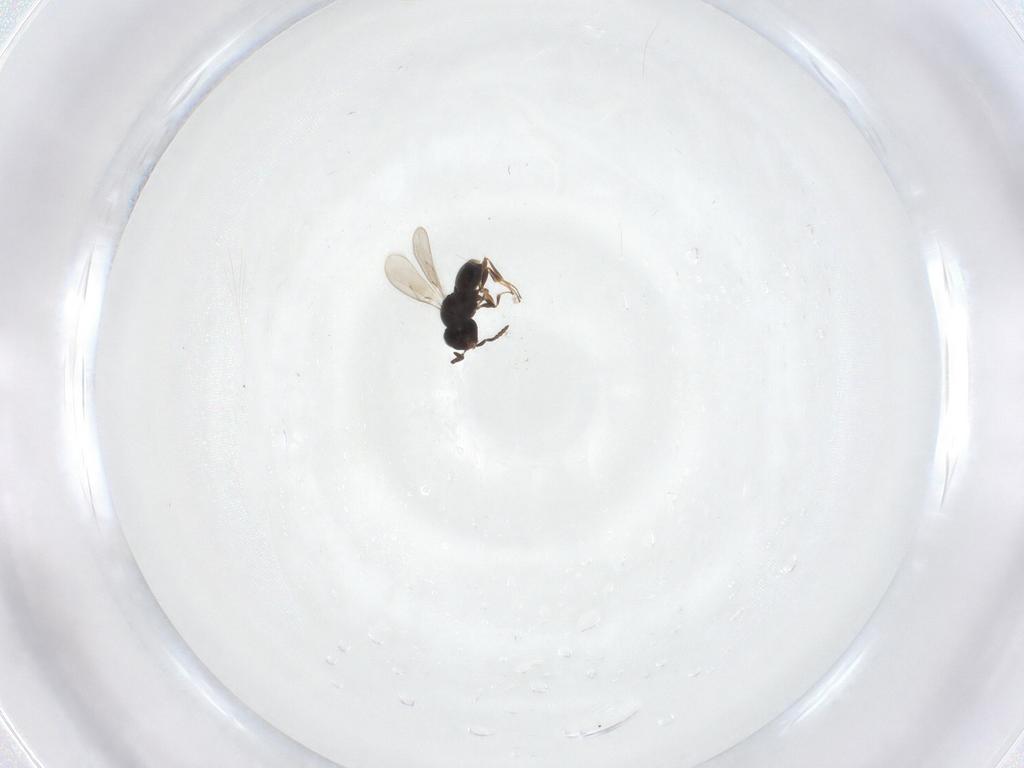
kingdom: Animalia
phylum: Arthropoda
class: Insecta
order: Hymenoptera
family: Scelionidae
